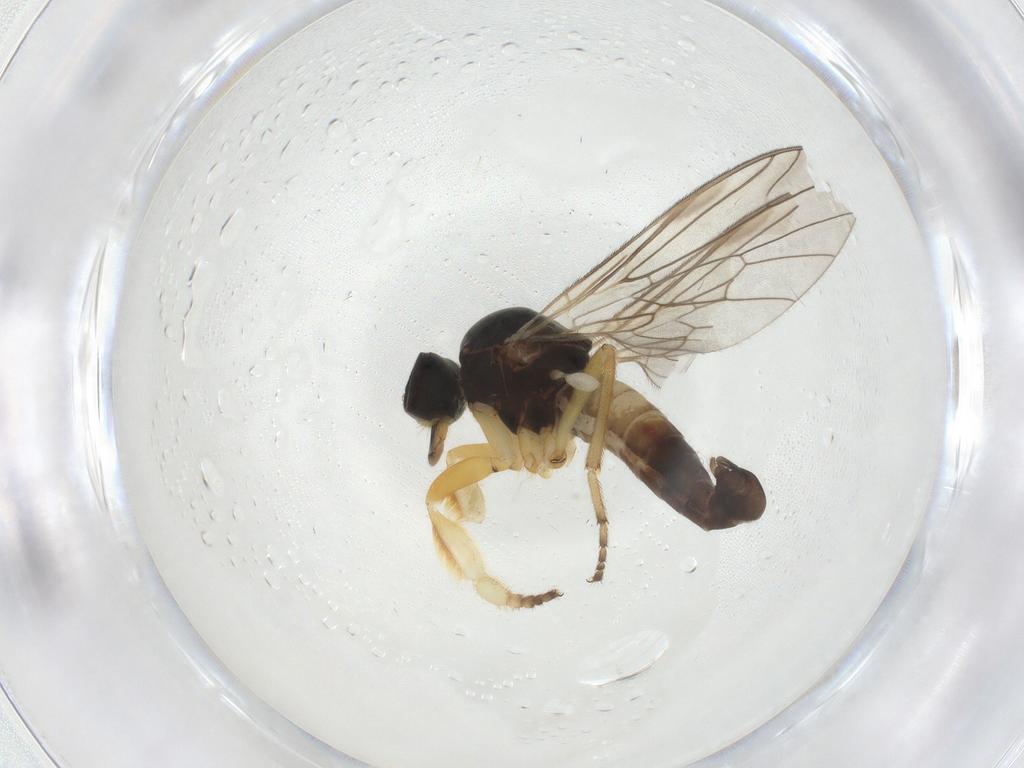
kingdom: Animalia
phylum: Arthropoda
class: Insecta
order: Diptera
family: Empididae
